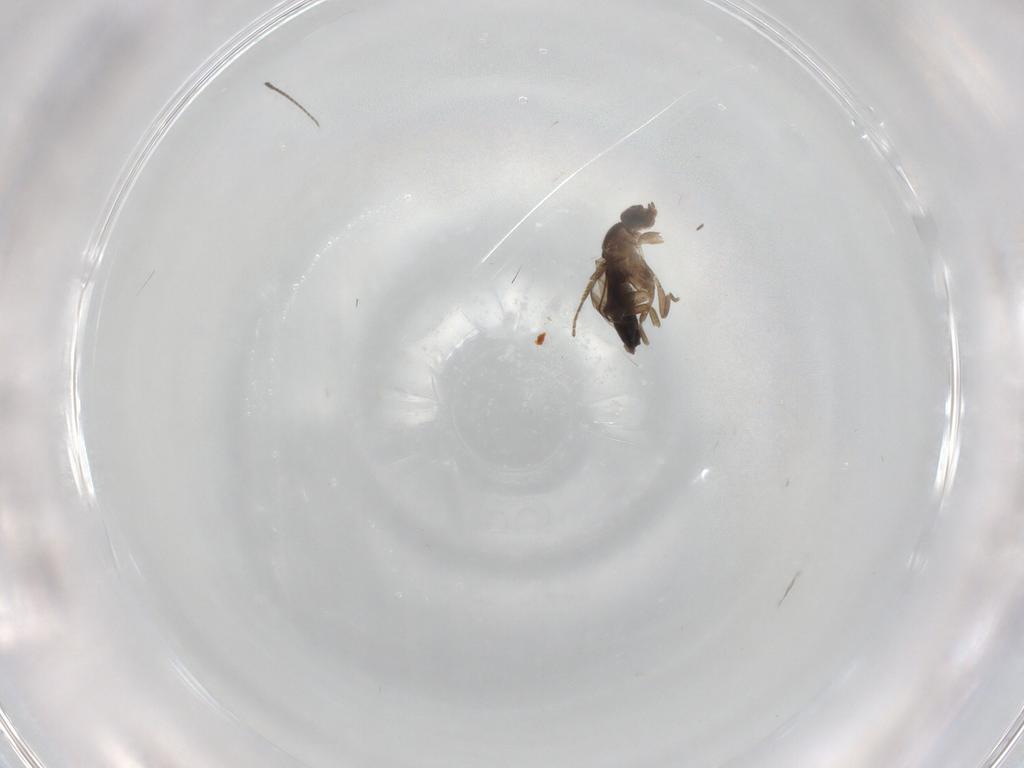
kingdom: Animalia
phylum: Arthropoda
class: Insecta
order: Diptera
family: Sciaridae
